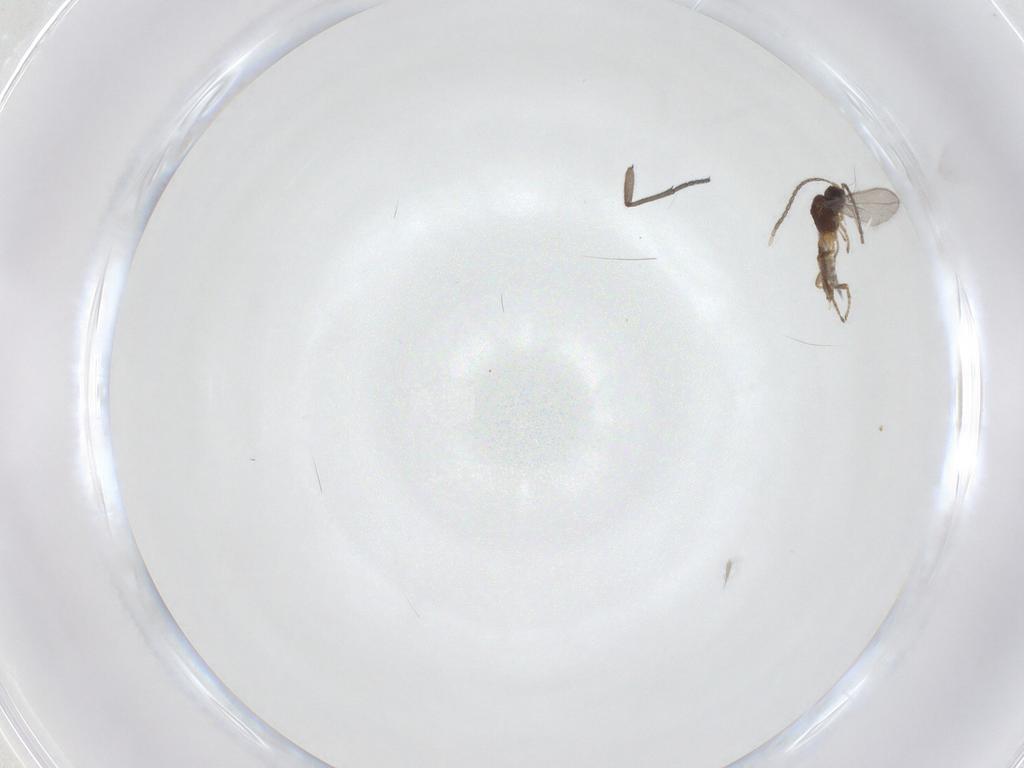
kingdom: Animalia
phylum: Arthropoda
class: Insecta
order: Diptera
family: Sciaridae
